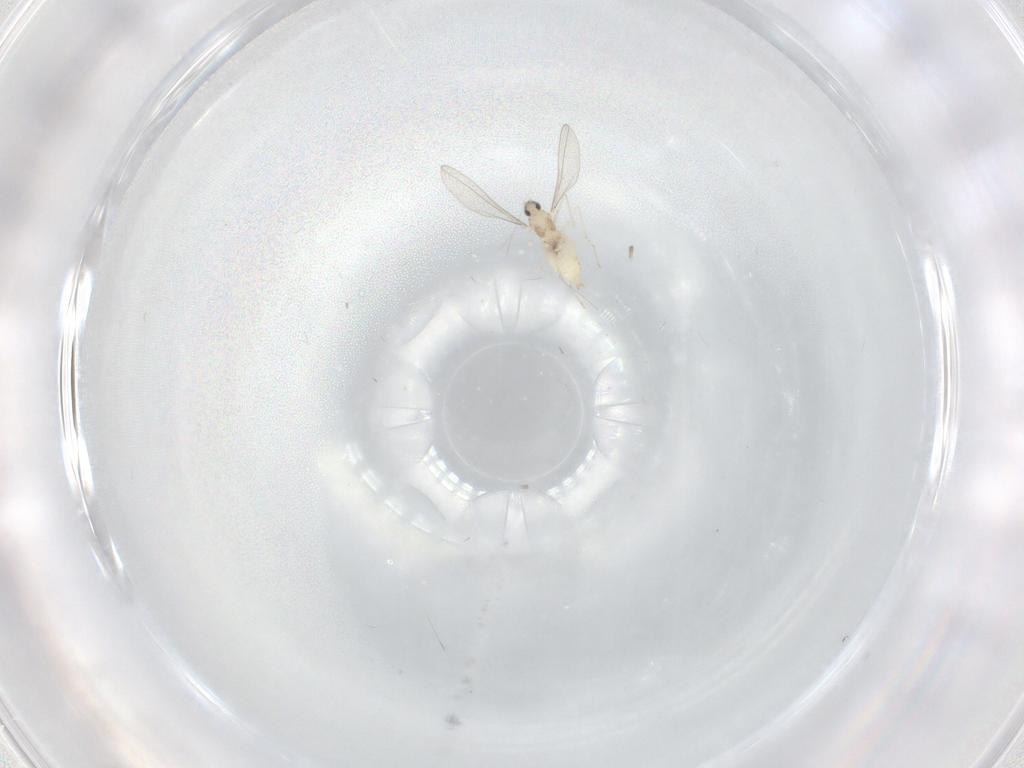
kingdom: Animalia
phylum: Arthropoda
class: Insecta
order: Diptera
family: Cecidomyiidae
